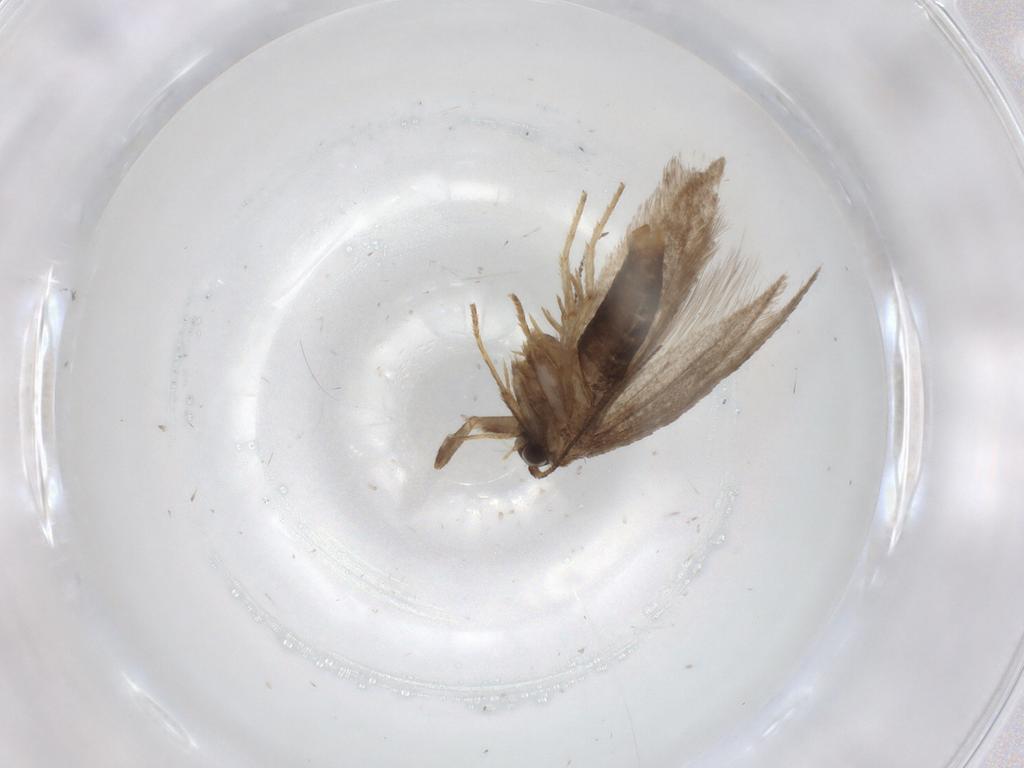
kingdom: Animalia
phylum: Arthropoda
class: Insecta
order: Lepidoptera
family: Nepticulidae
